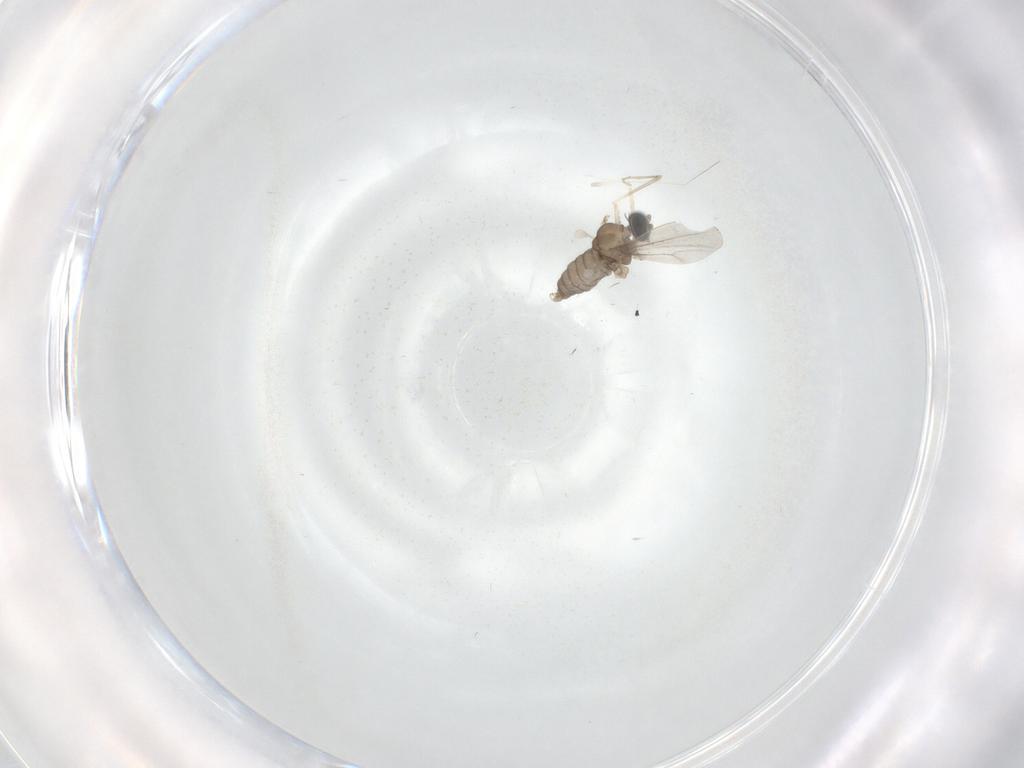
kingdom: Animalia
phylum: Arthropoda
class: Insecta
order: Diptera
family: Cecidomyiidae
